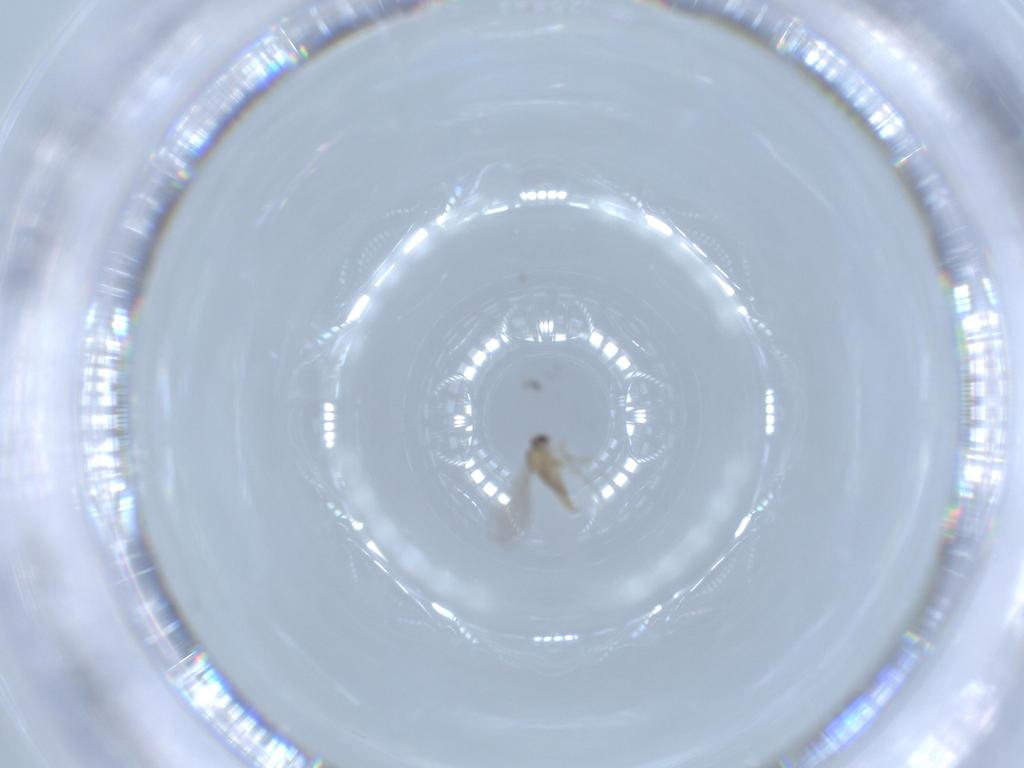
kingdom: Animalia
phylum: Arthropoda
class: Insecta
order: Diptera
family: Cecidomyiidae
